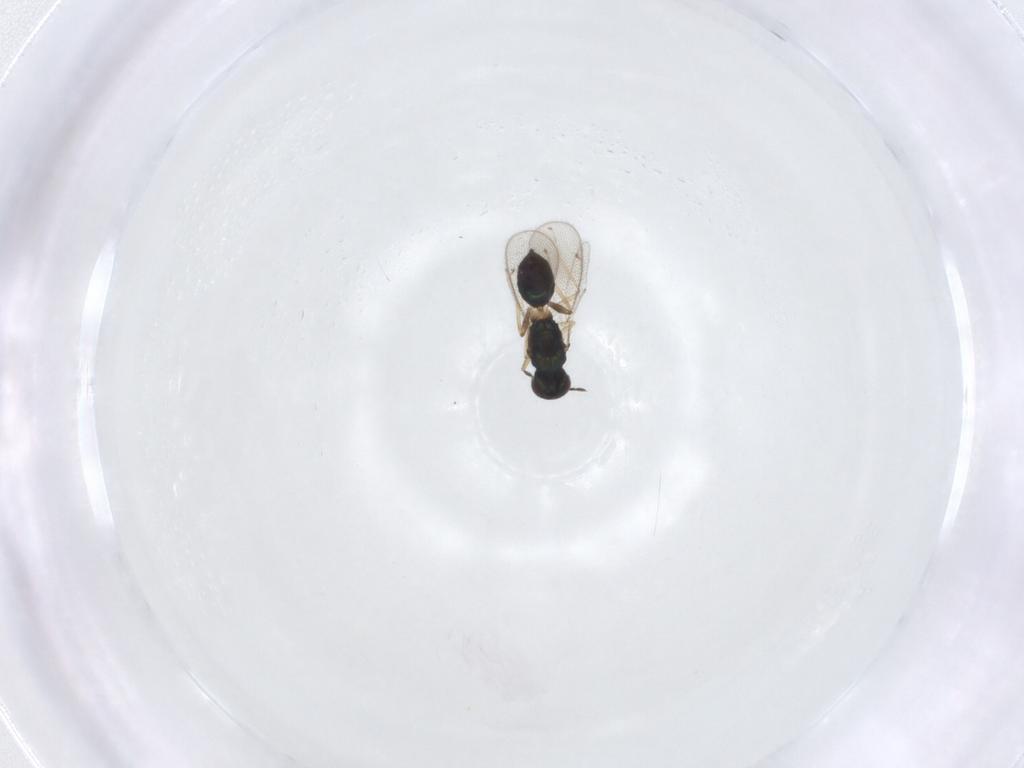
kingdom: Animalia
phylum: Arthropoda
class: Insecta
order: Hymenoptera
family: Eulophidae
